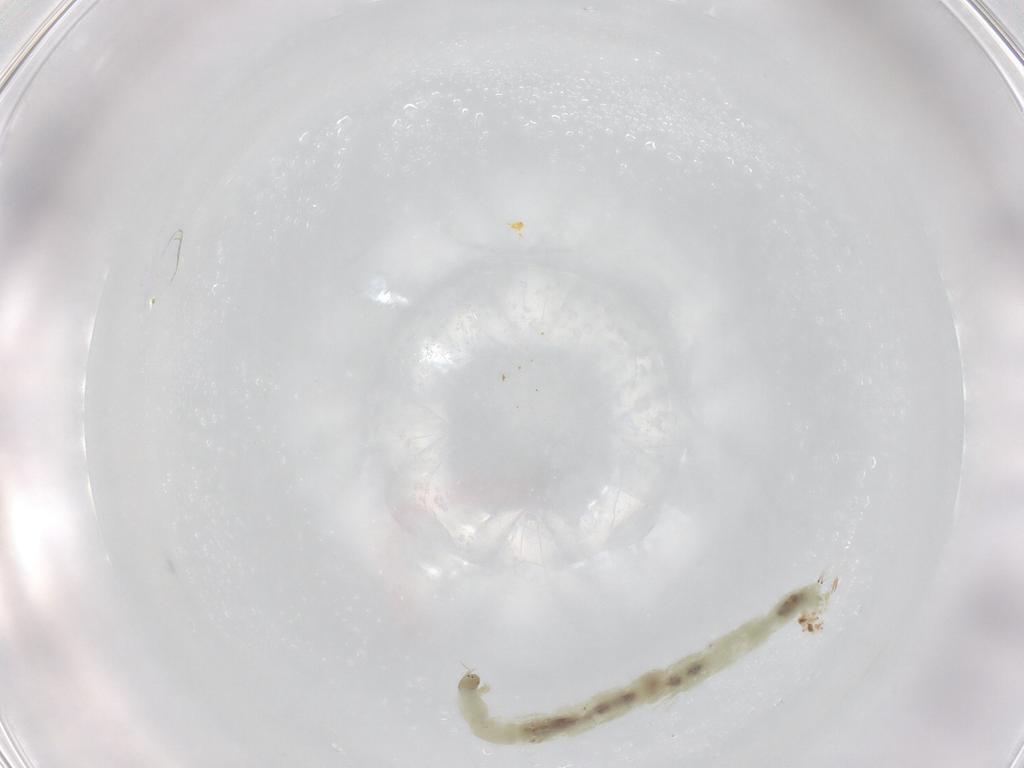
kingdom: Animalia
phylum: Arthropoda
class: Insecta
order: Diptera
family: Chironomidae
